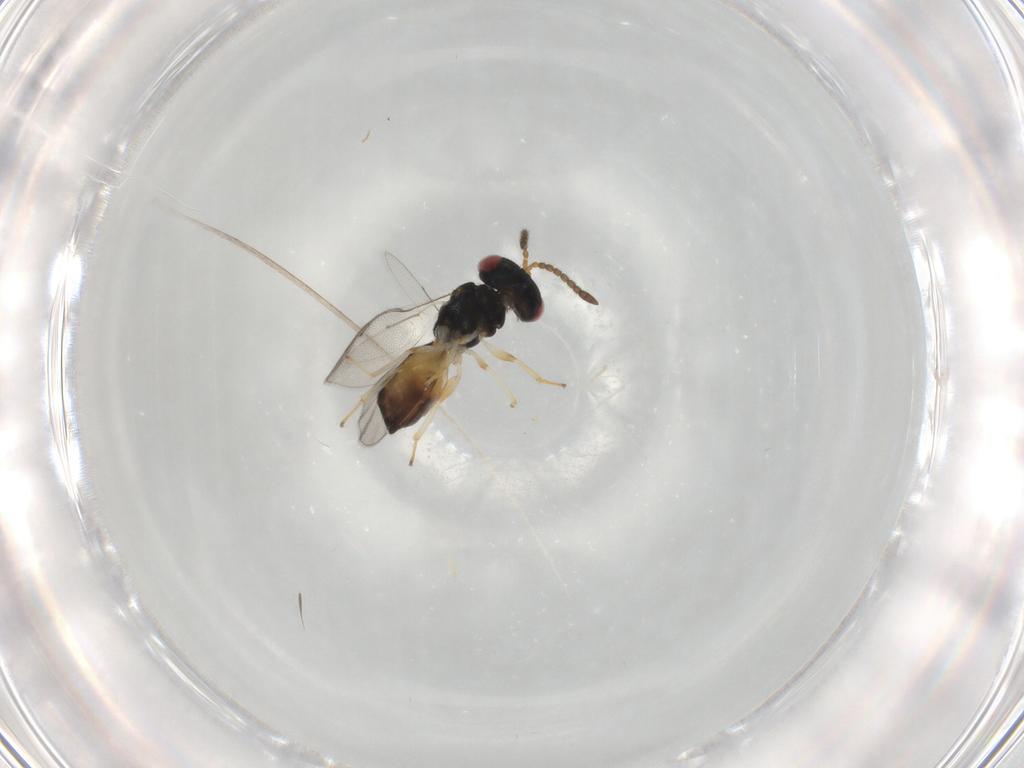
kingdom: Animalia
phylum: Arthropoda
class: Insecta
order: Hymenoptera
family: Pteromalidae
